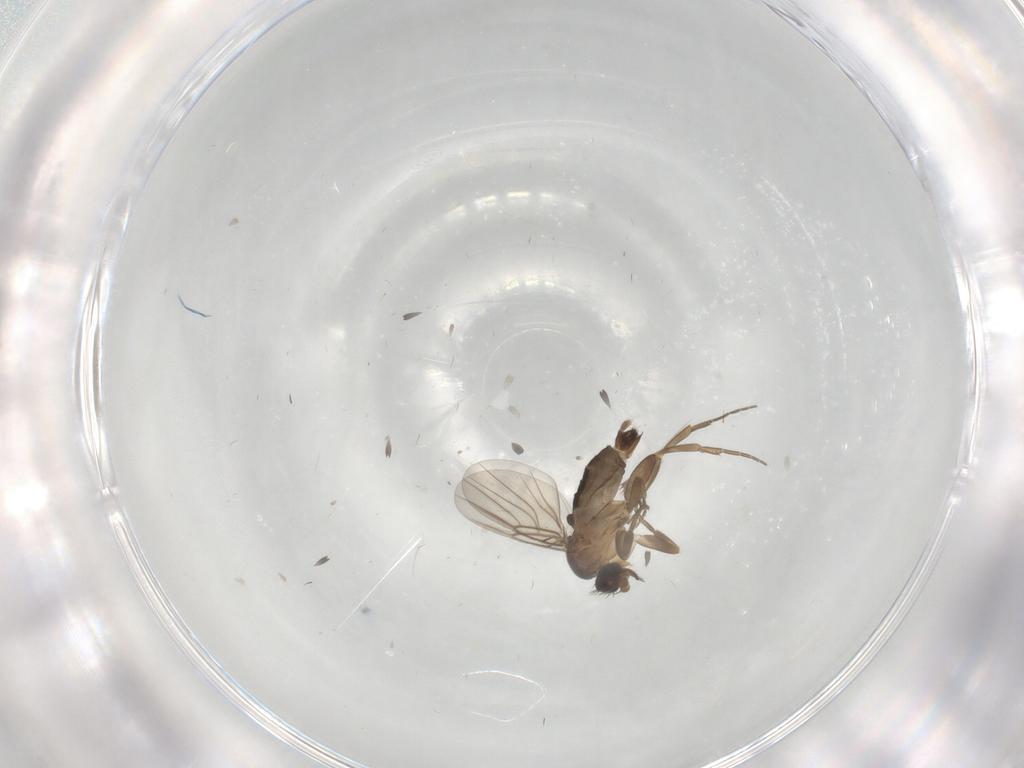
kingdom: Animalia
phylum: Arthropoda
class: Insecta
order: Diptera
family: Phoridae
